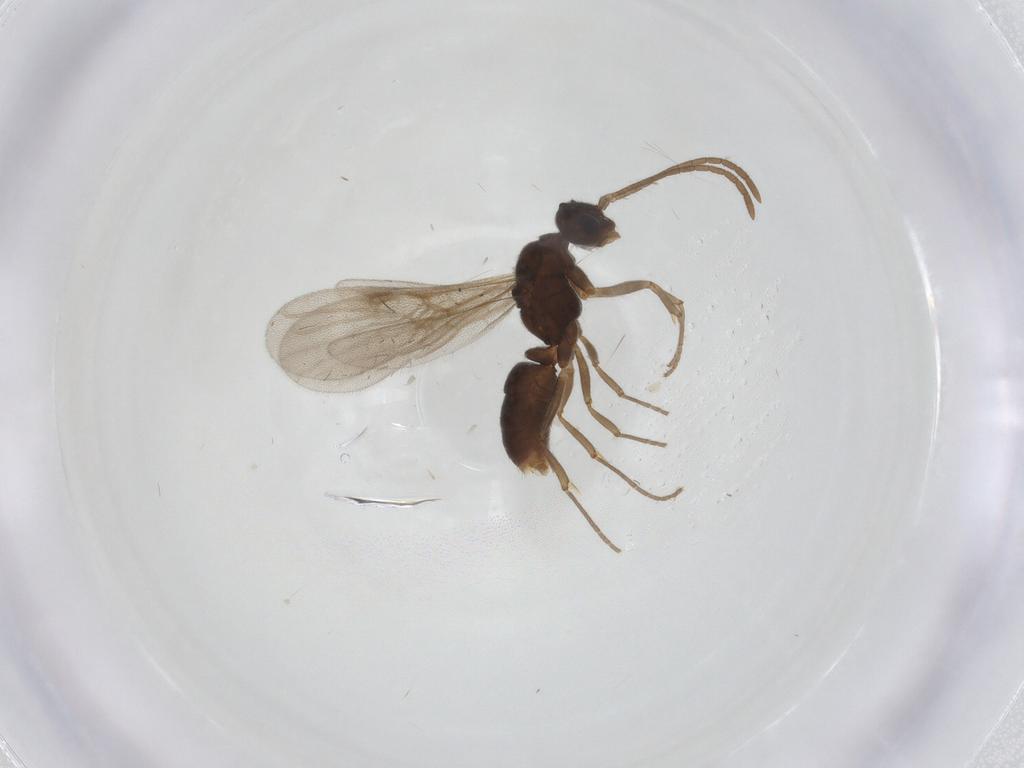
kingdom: Animalia
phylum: Arthropoda
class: Insecta
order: Hymenoptera
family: Formicidae
